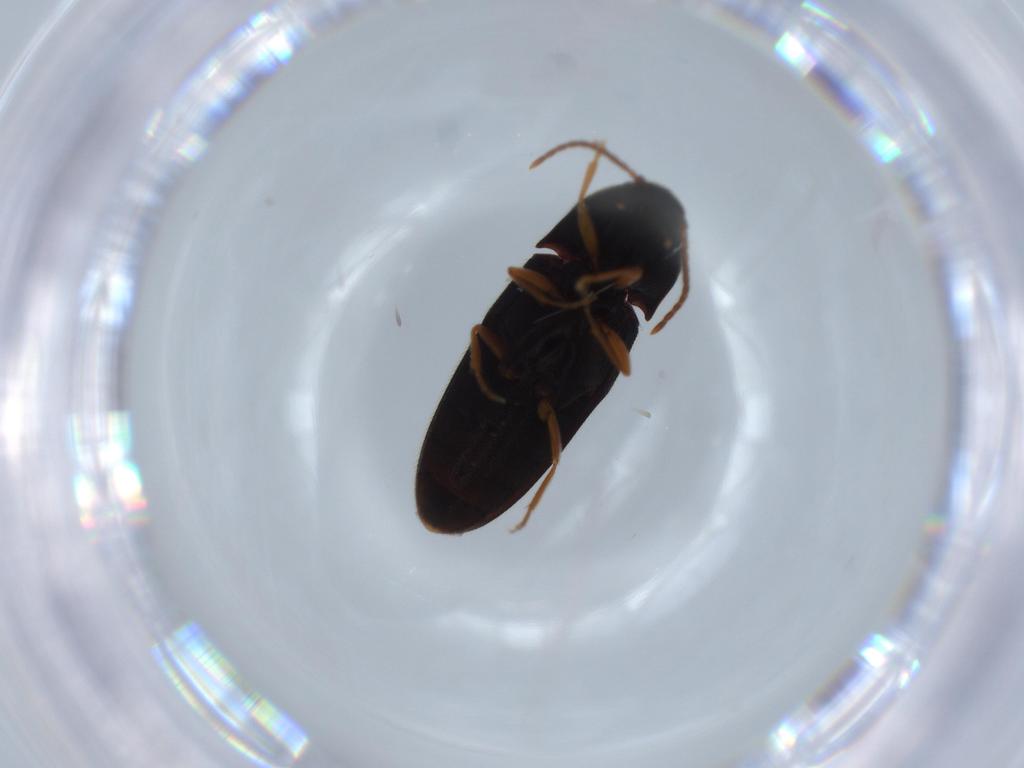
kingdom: Animalia
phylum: Arthropoda
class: Insecta
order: Coleoptera
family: Elateridae
